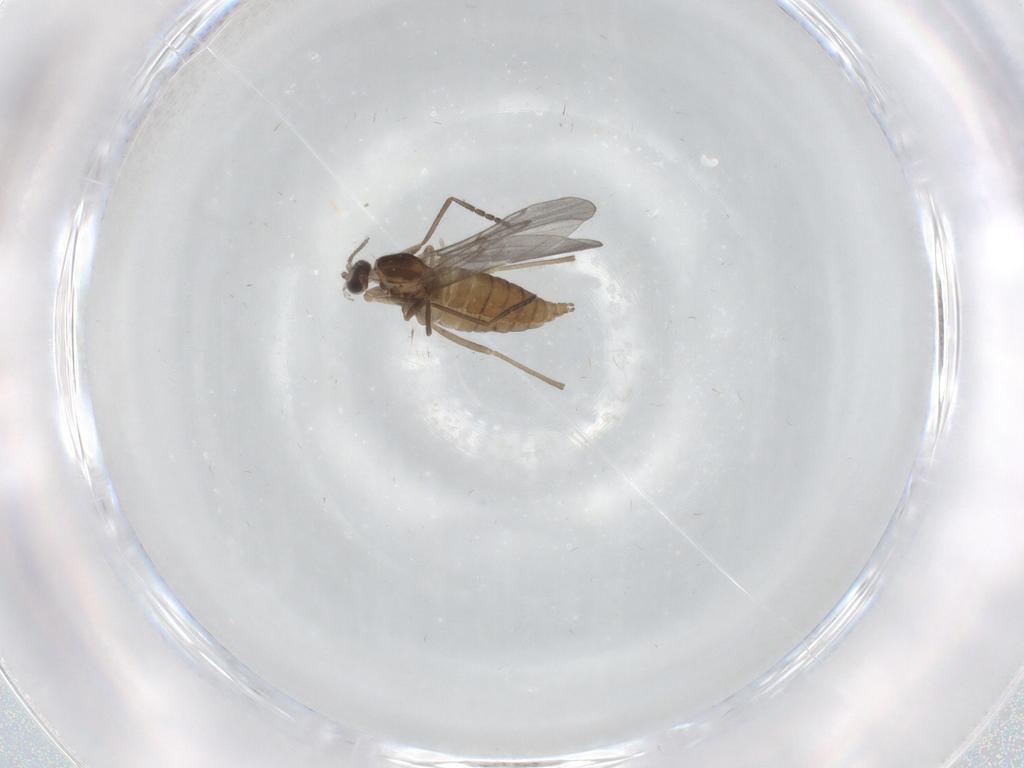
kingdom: Animalia
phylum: Arthropoda
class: Insecta
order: Diptera
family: Cecidomyiidae
